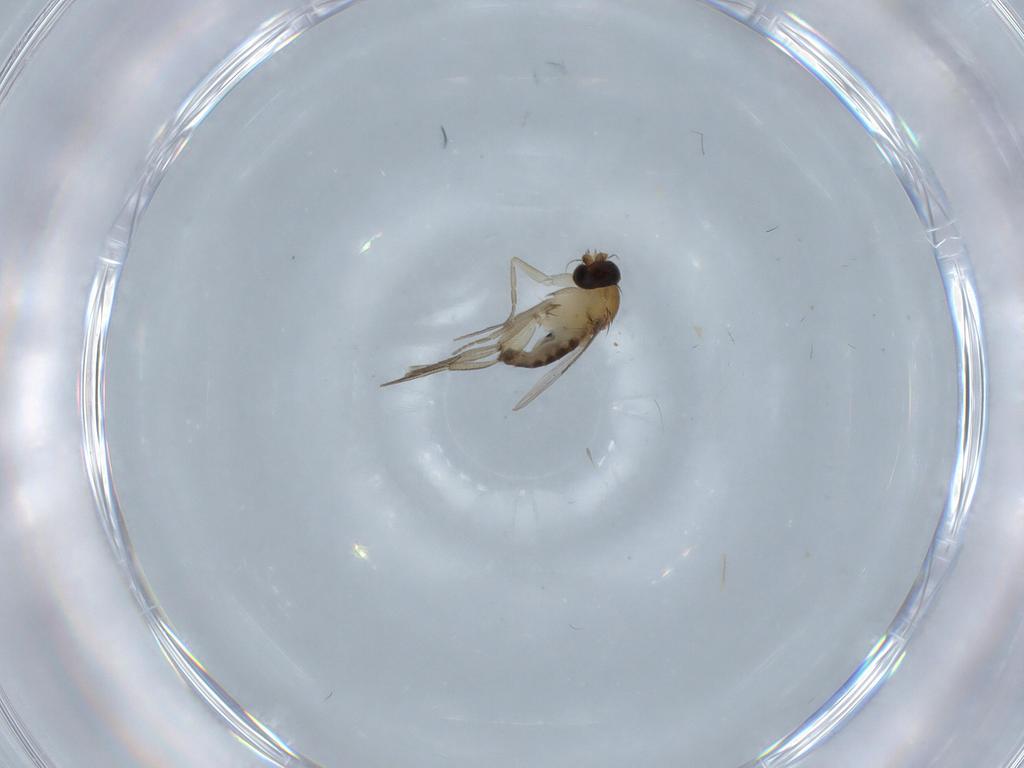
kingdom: Animalia
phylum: Arthropoda
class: Insecta
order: Diptera
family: Phoridae
